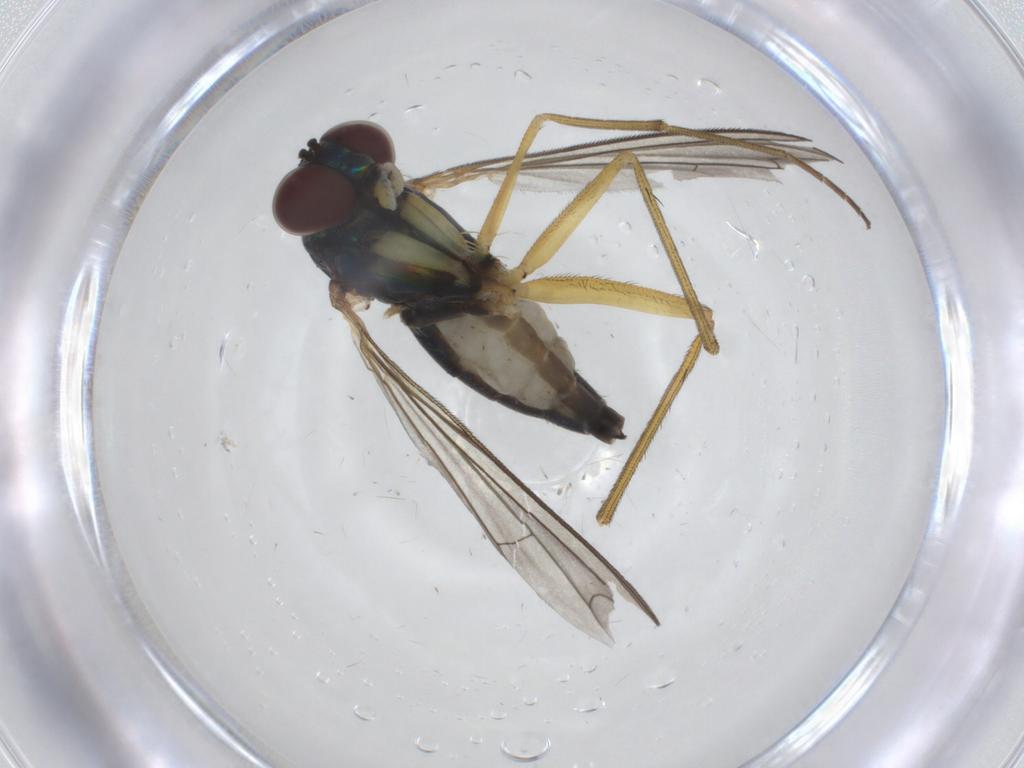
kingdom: Animalia
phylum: Arthropoda
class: Insecta
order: Diptera
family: Dolichopodidae
